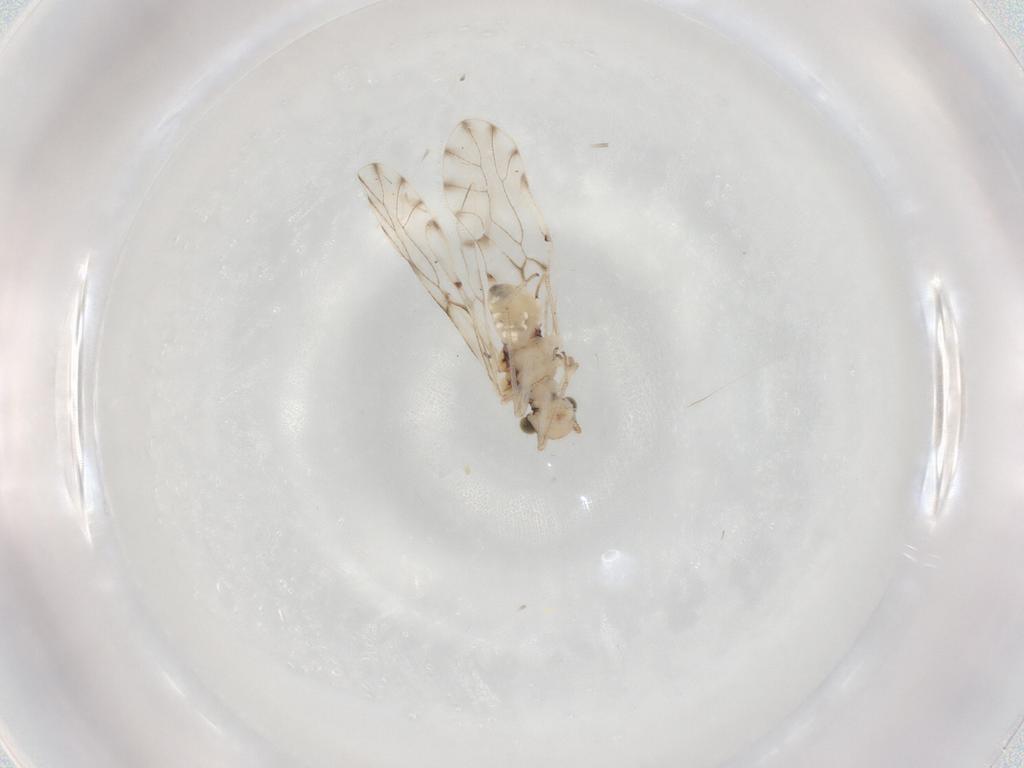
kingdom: Animalia
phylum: Arthropoda
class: Insecta
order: Psocodea
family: Ectopsocidae
